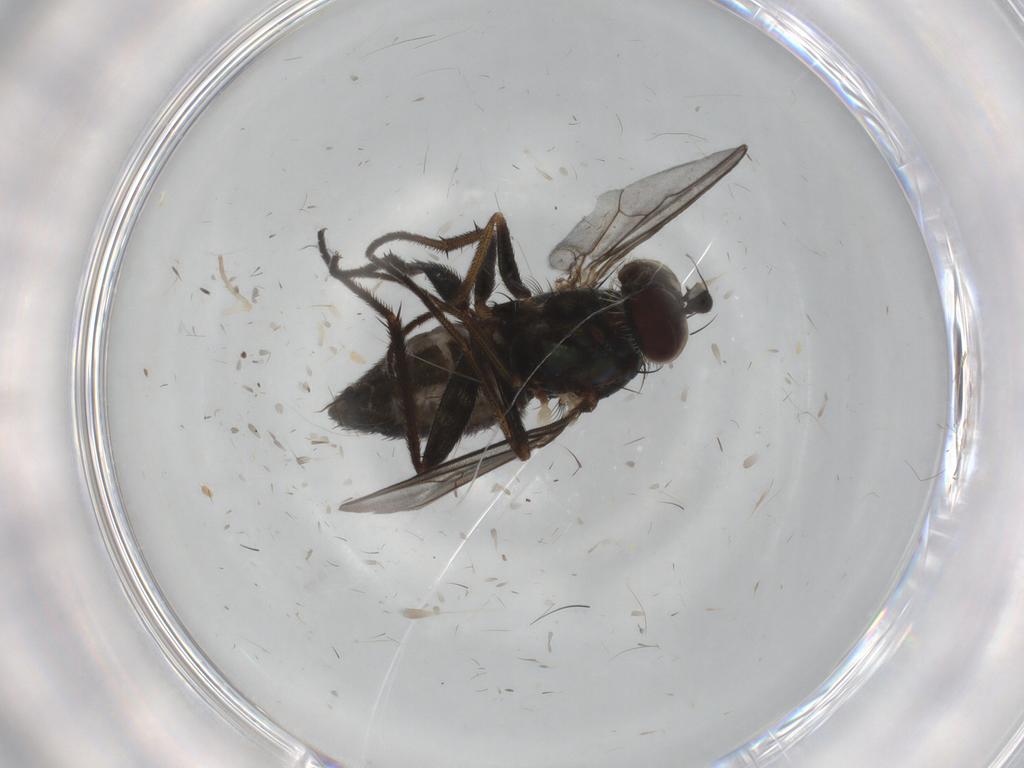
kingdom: Animalia
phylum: Arthropoda
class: Insecta
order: Diptera
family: Dolichopodidae
